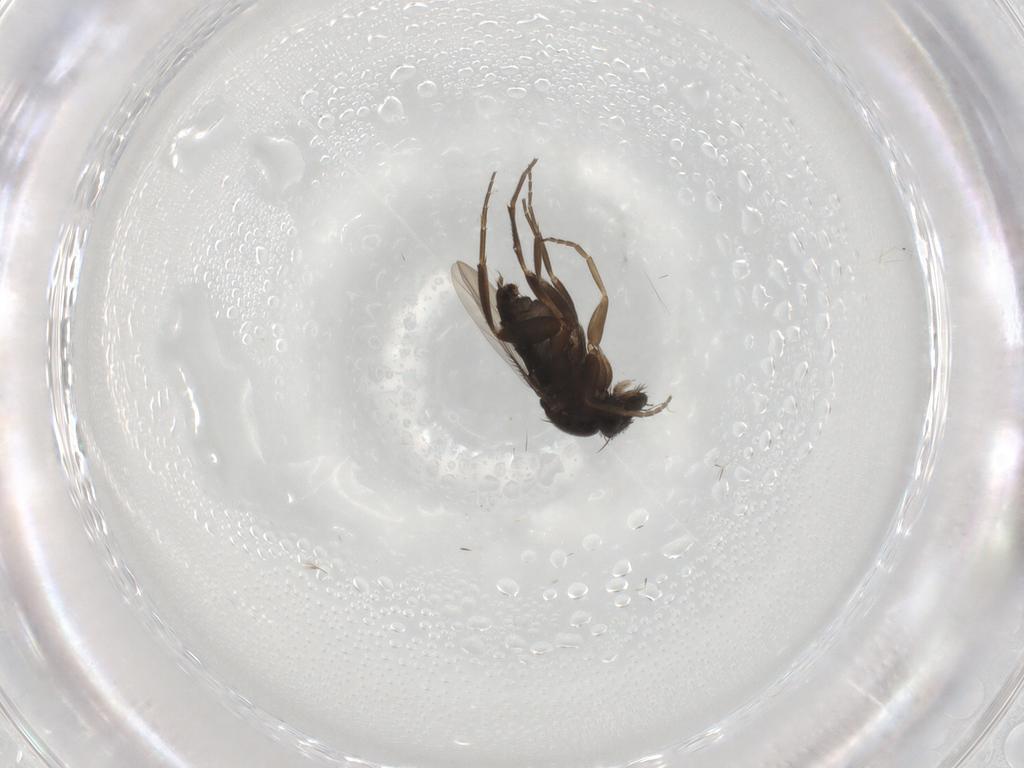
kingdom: Animalia
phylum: Arthropoda
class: Insecta
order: Diptera
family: Phoridae
